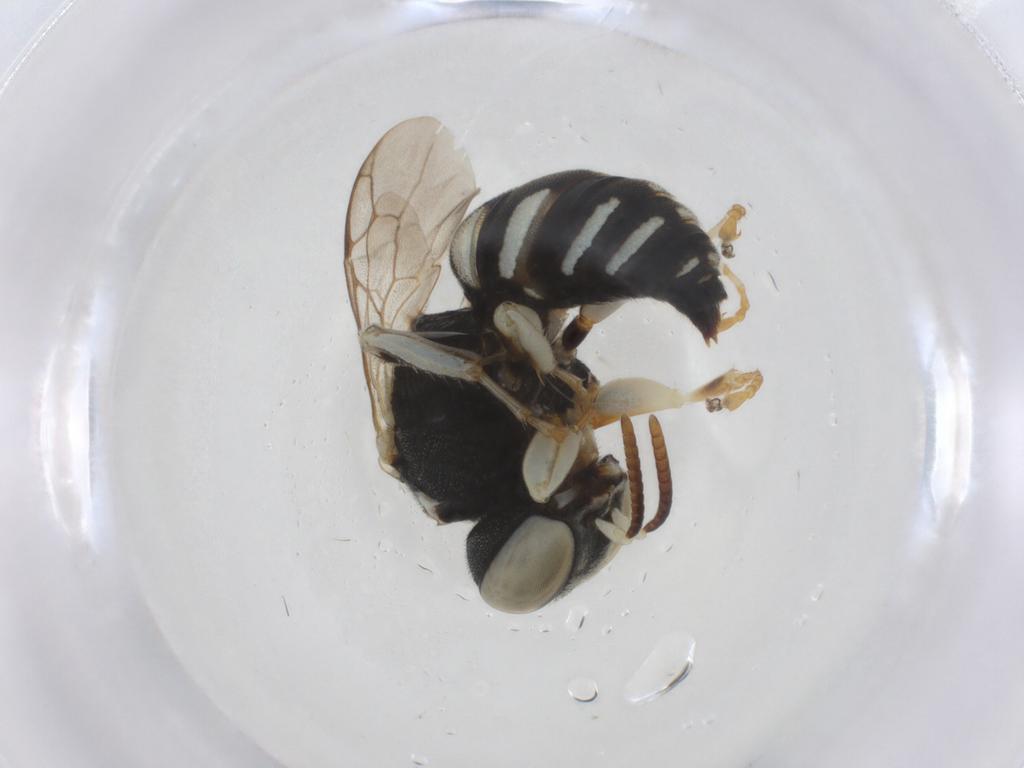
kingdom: Animalia
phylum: Arthropoda
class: Insecta
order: Hymenoptera
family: Crabronidae
